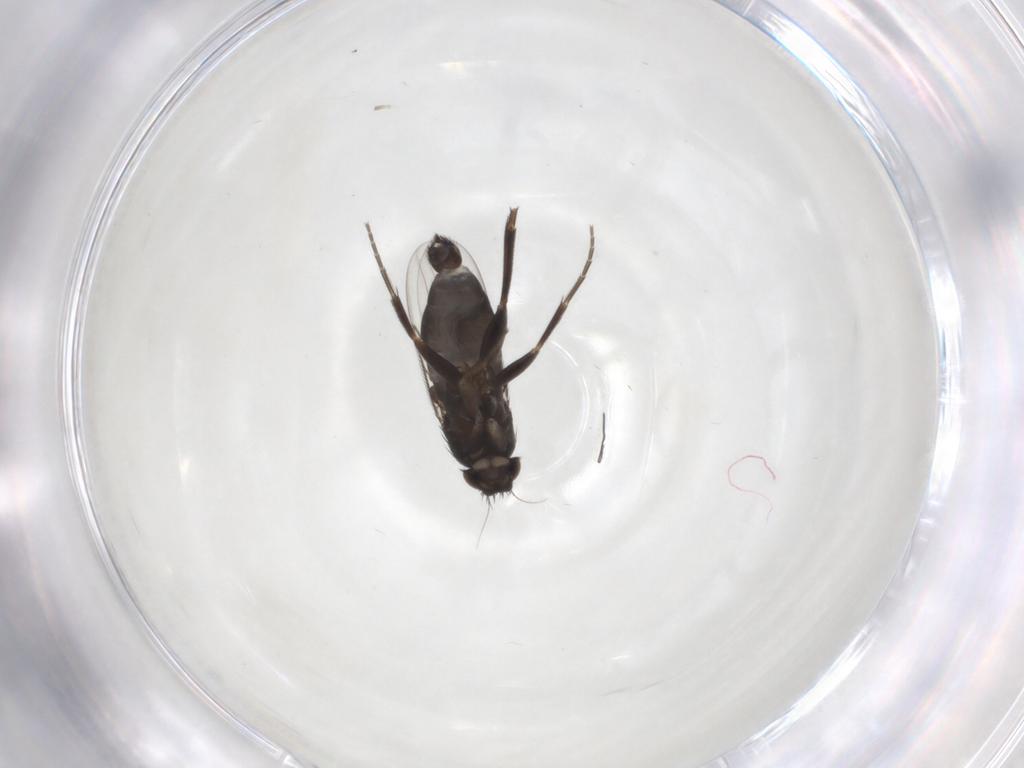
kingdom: Animalia
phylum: Arthropoda
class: Insecta
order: Diptera
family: Phoridae
